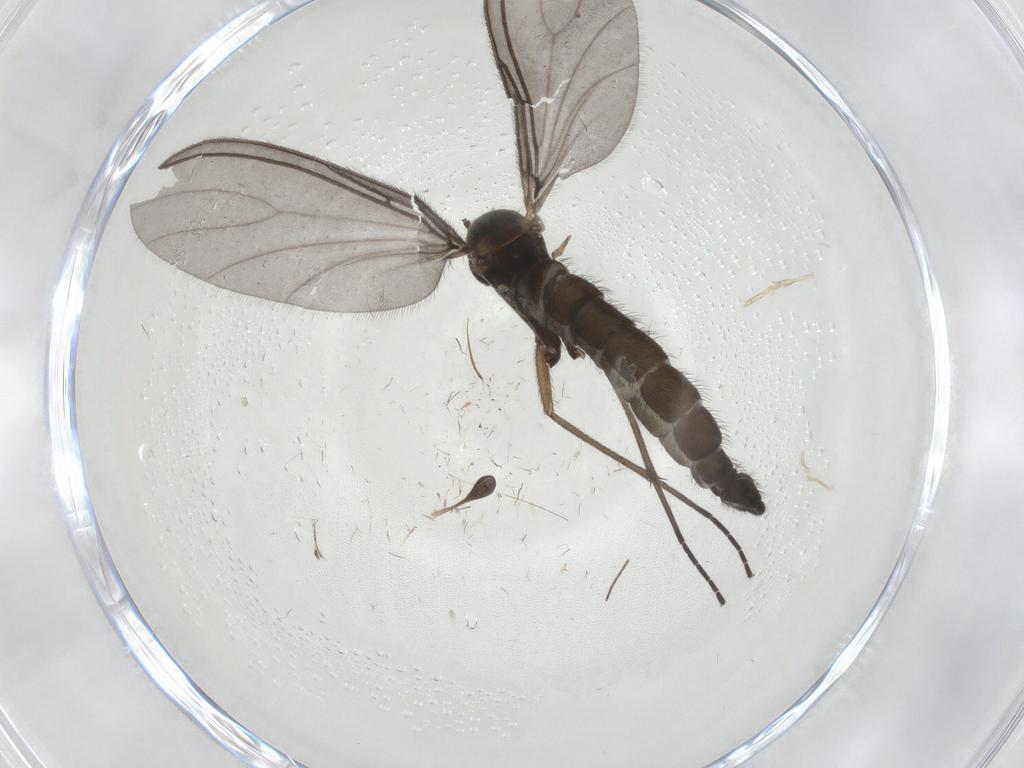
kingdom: Animalia
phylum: Arthropoda
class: Insecta
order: Diptera
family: Sciaridae
